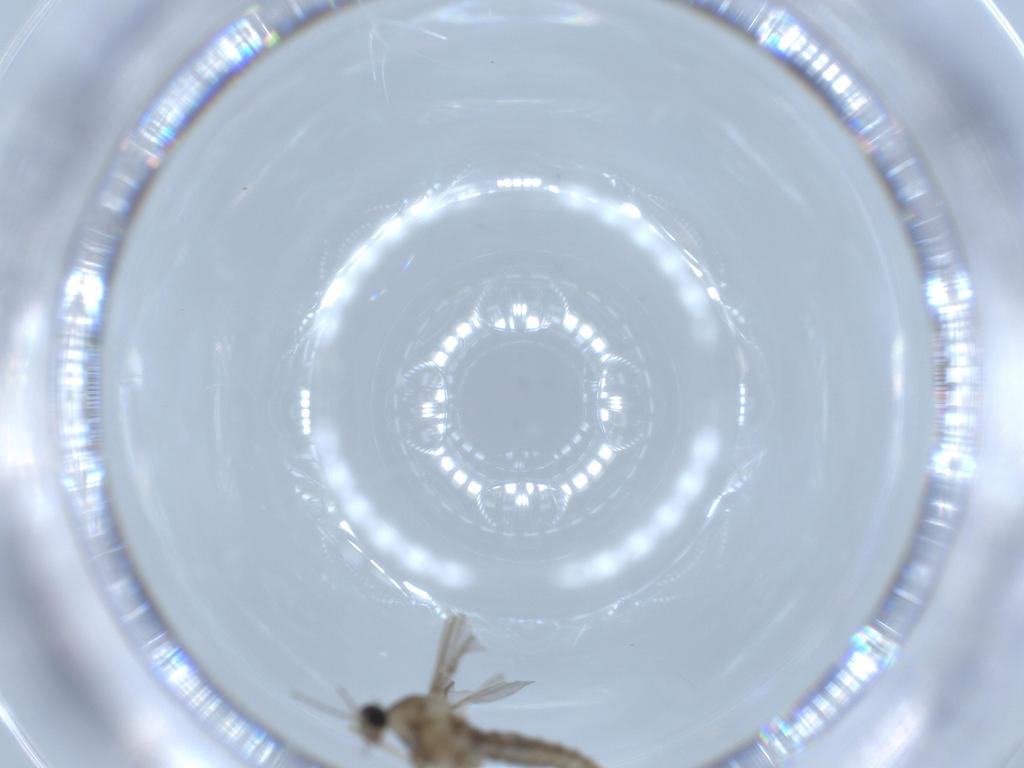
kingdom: Animalia
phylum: Arthropoda
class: Insecta
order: Diptera
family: Cecidomyiidae
